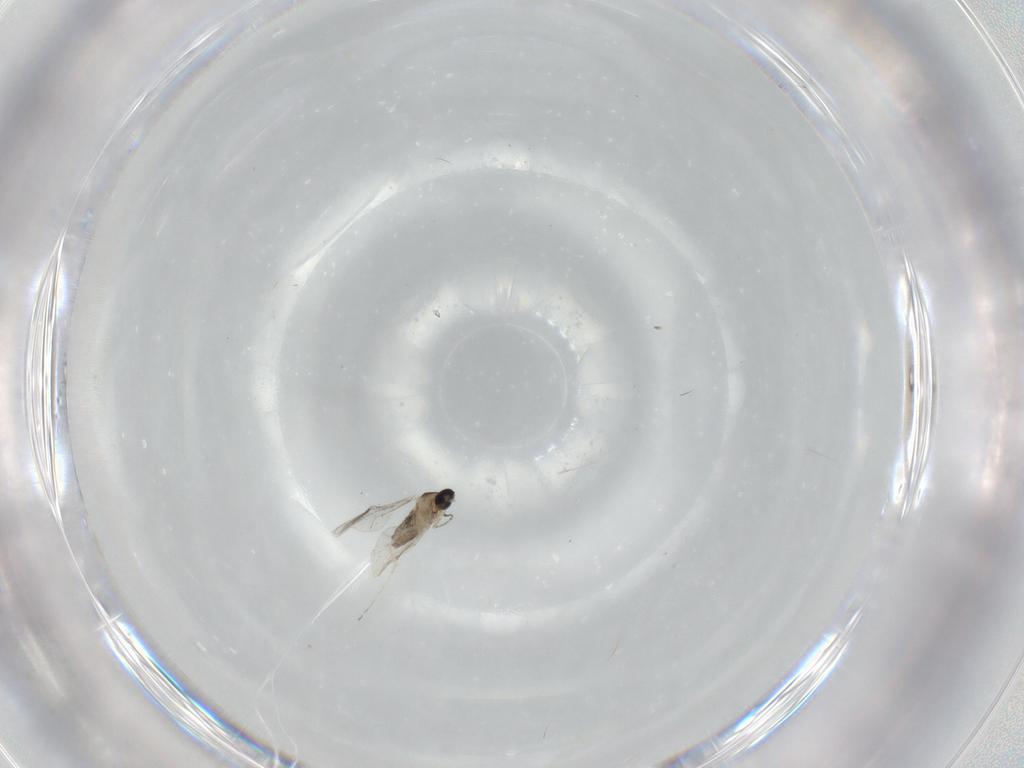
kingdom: Animalia
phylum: Arthropoda
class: Insecta
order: Diptera
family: Cecidomyiidae
